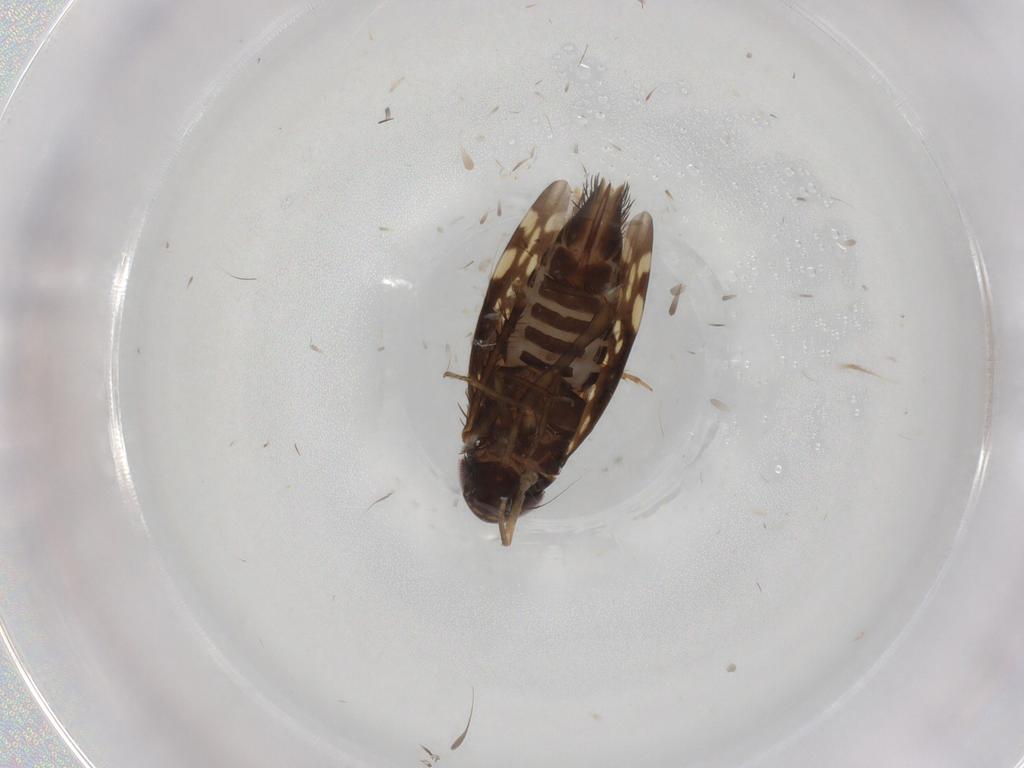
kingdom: Animalia
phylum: Arthropoda
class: Insecta
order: Hemiptera
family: Cicadellidae
